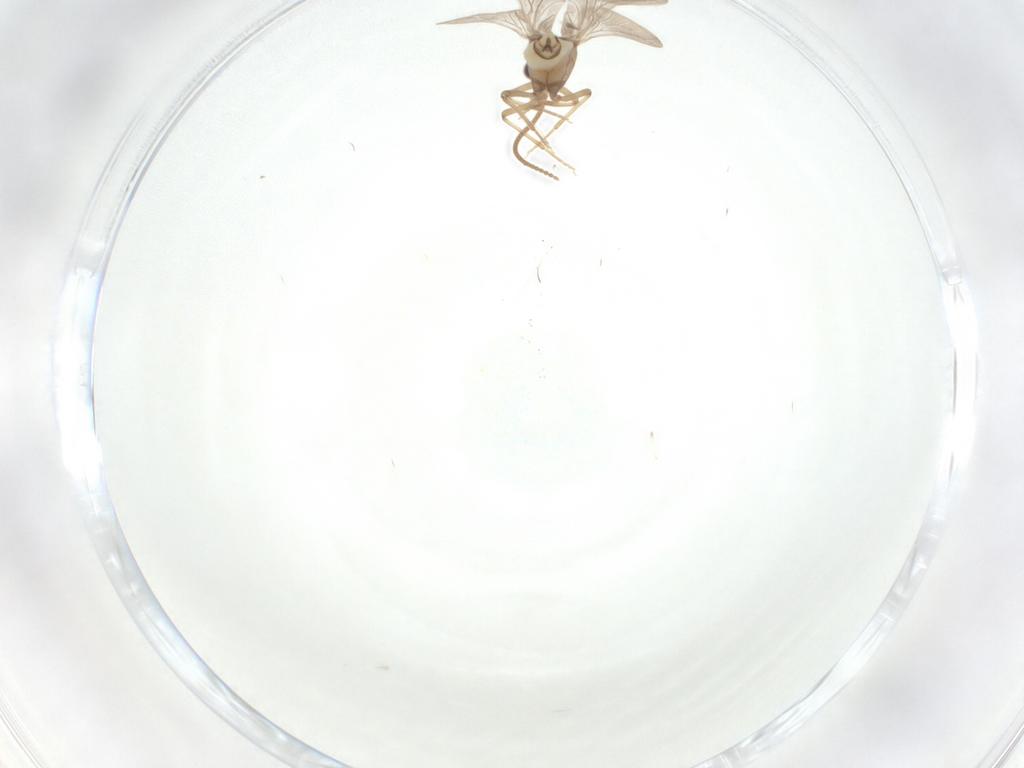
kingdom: Animalia
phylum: Arthropoda
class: Insecta
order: Neuroptera
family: Coniopterygidae
